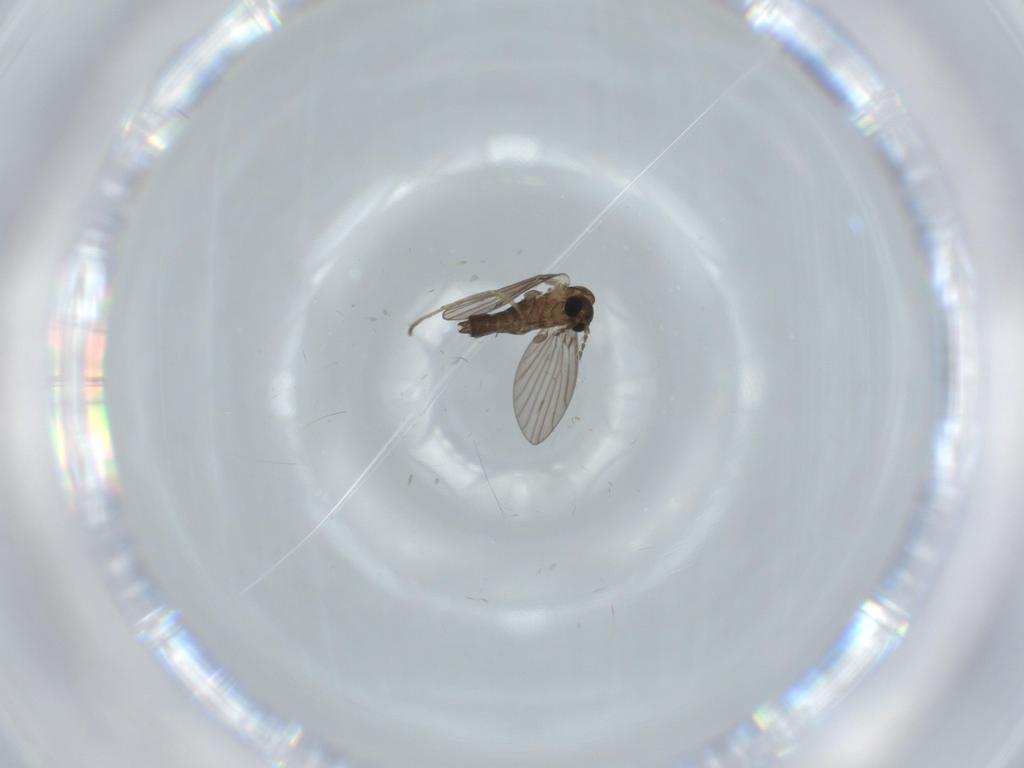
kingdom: Animalia
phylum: Arthropoda
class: Insecta
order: Diptera
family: Psychodidae
